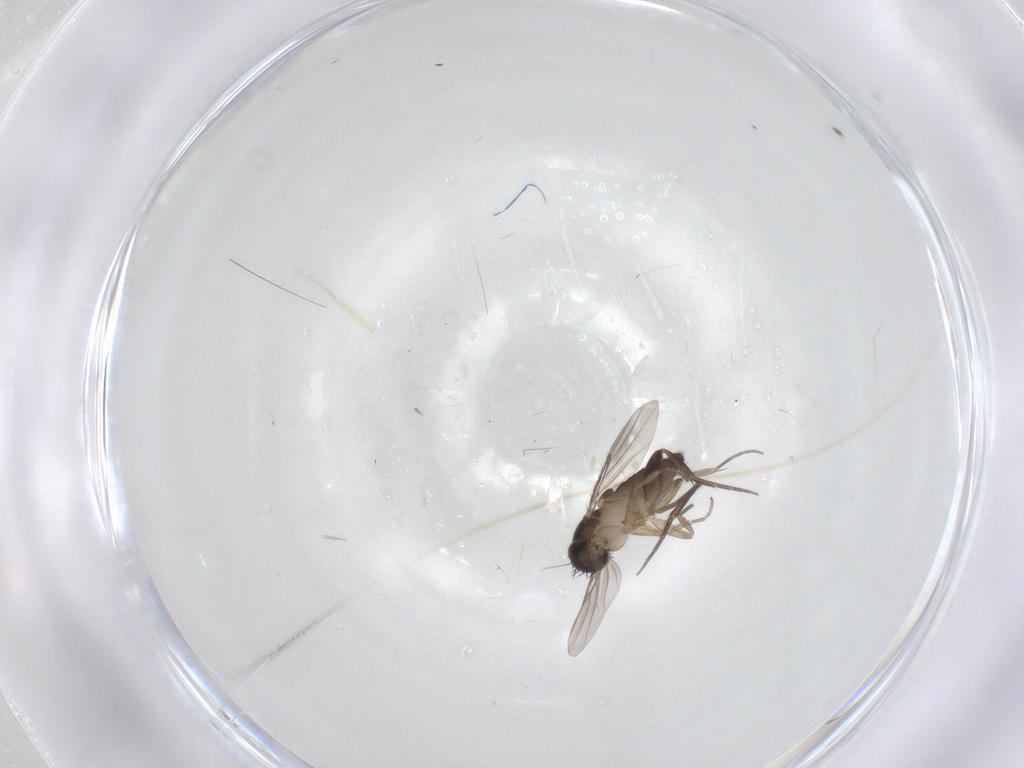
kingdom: Animalia
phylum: Arthropoda
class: Insecta
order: Diptera
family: Phoridae
